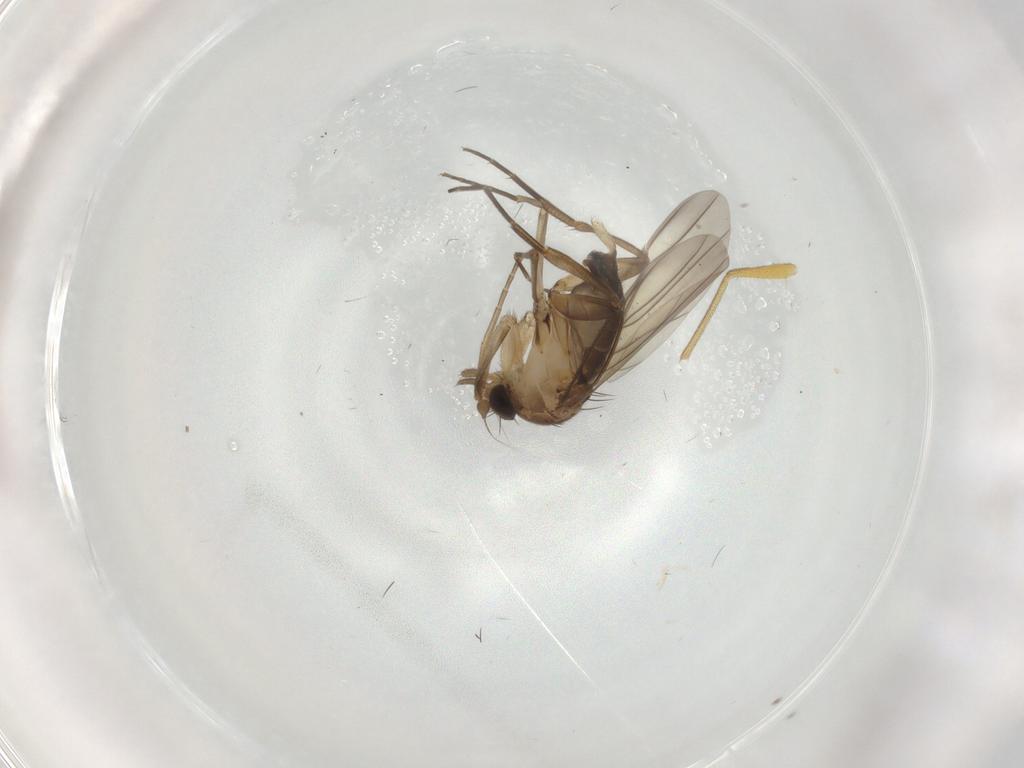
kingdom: Animalia
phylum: Arthropoda
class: Insecta
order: Diptera
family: Phoridae
